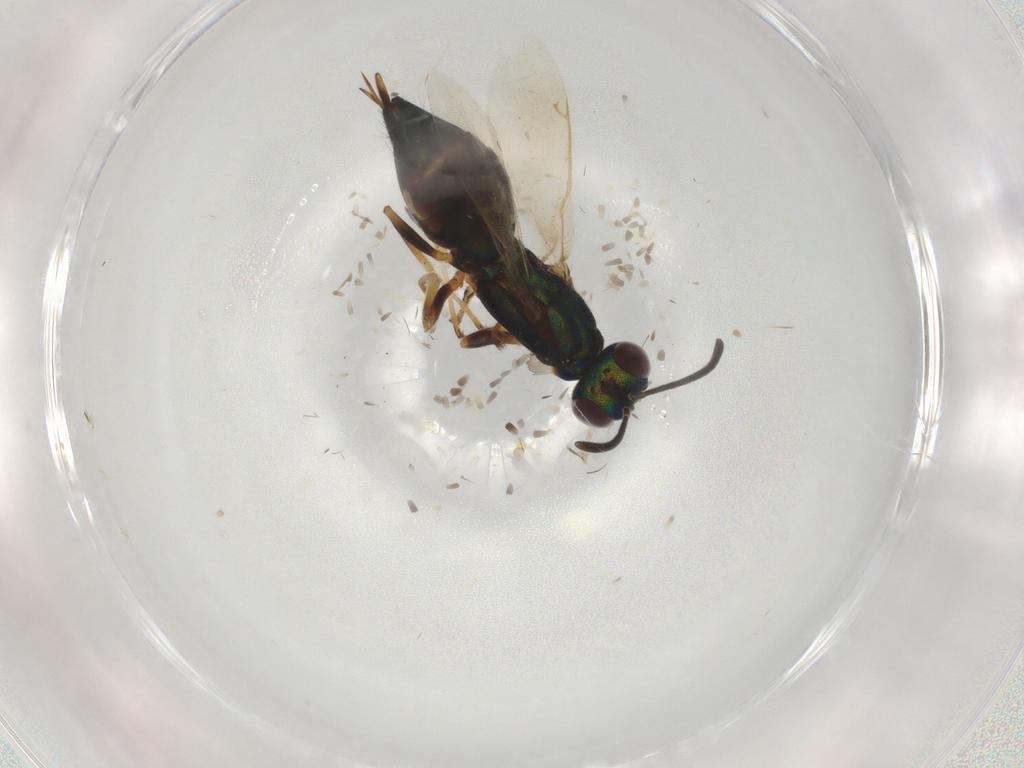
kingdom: Animalia
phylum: Arthropoda
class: Insecta
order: Hymenoptera
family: Eupelmidae
